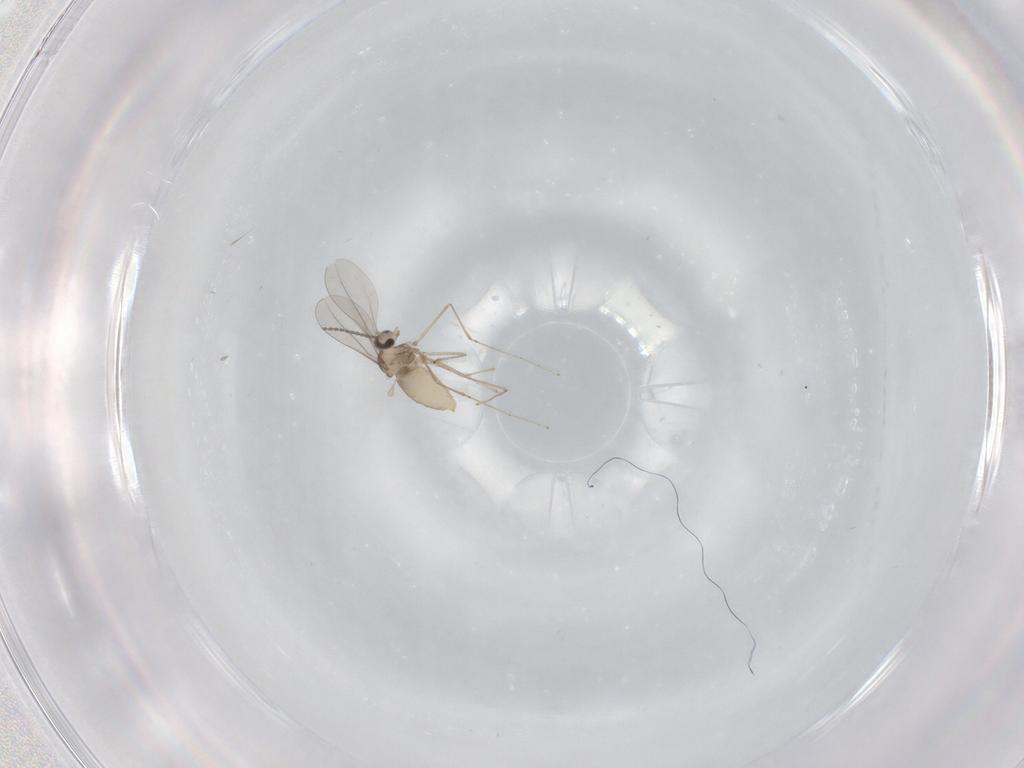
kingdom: Animalia
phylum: Arthropoda
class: Insecta
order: Diptera
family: Cecidomyiidae
